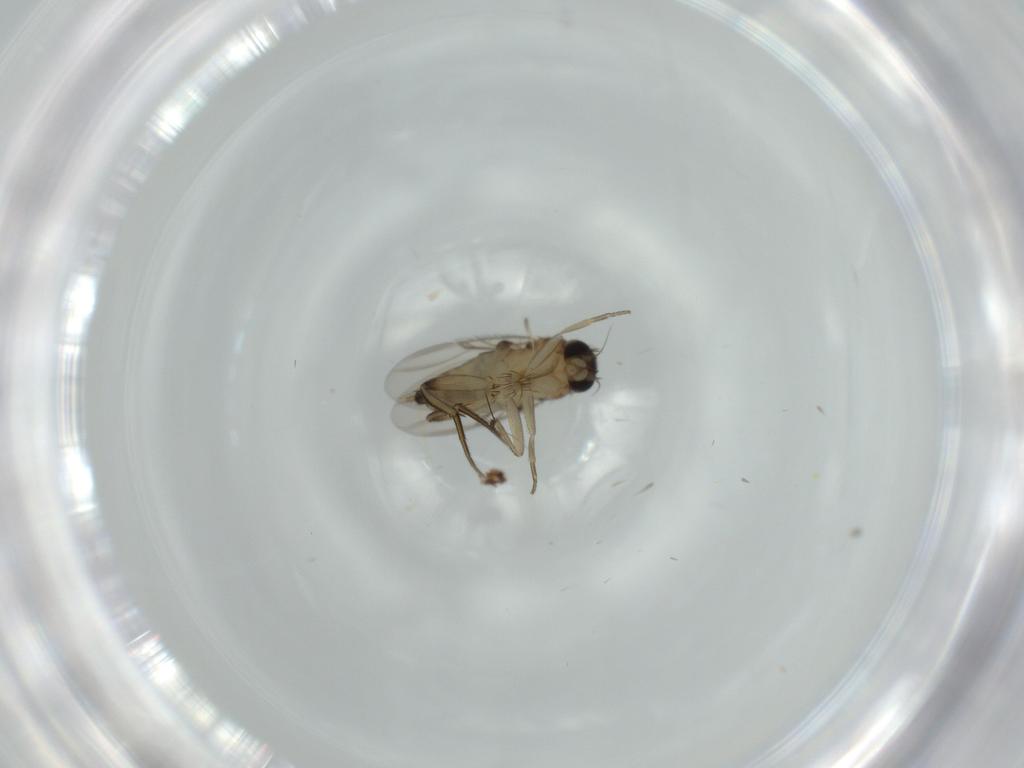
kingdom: Animalia
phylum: Arthropoda
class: Insecta
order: Diptera
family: Phoridae
